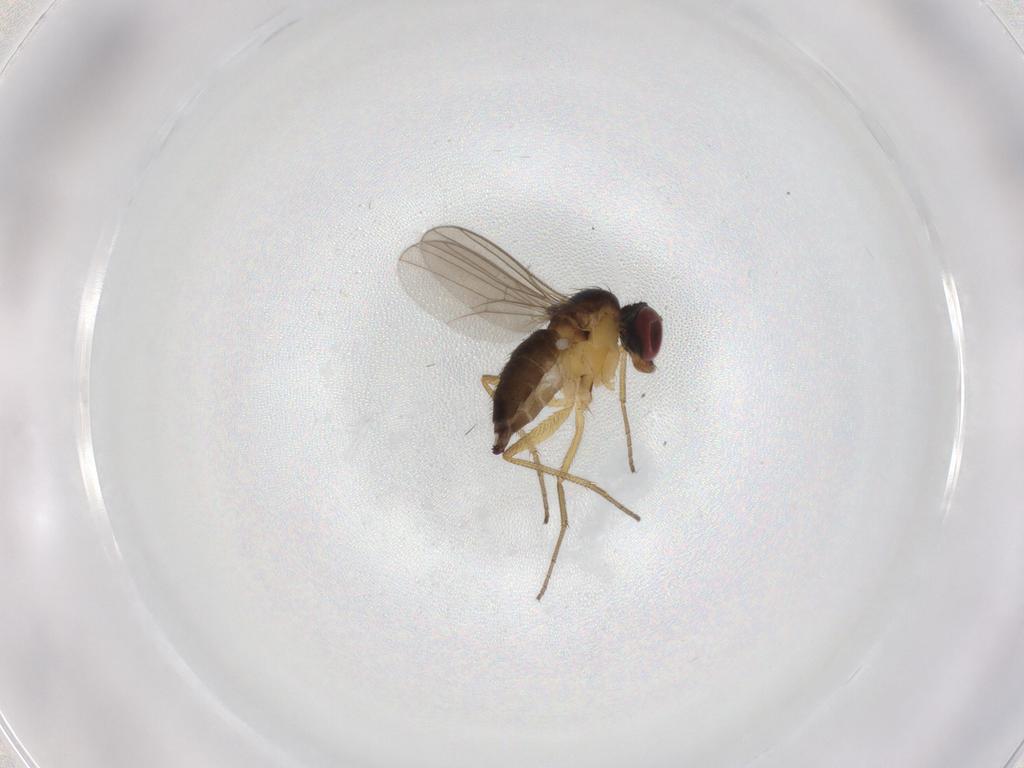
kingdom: Animalia
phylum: Arthropoda
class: Insecta
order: Diptera
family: Dolichopodidae
